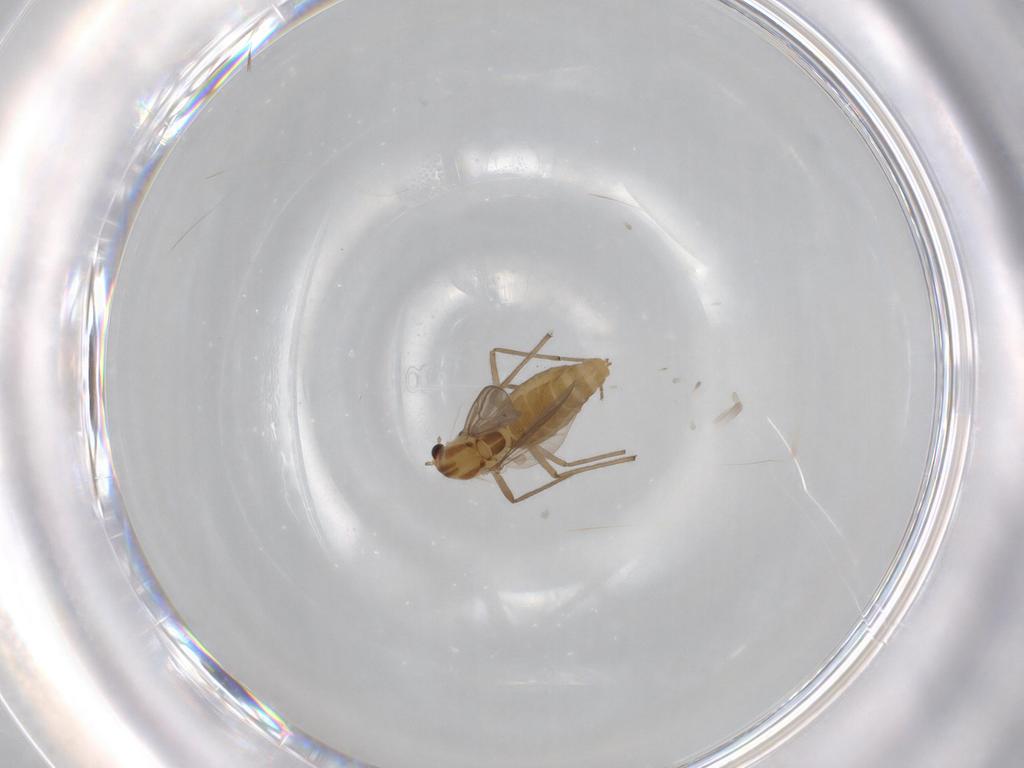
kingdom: Animalia
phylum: Arthropoda
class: Insecta
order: Diptera
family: Chironomidae
